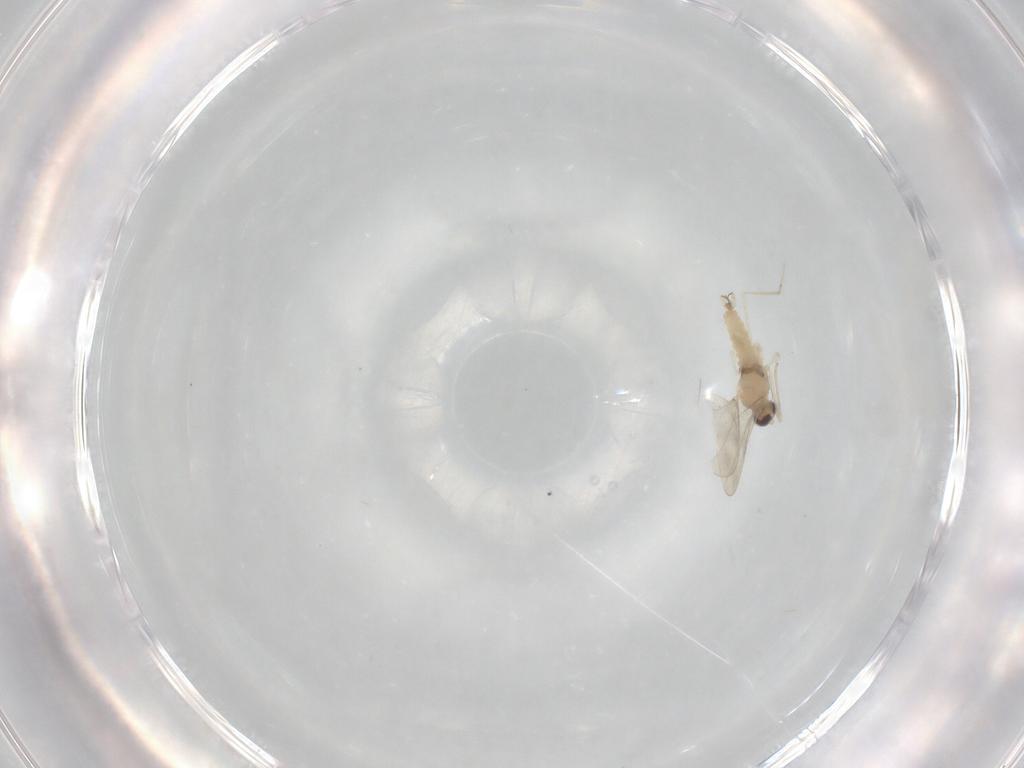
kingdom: Animalia
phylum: Arthropoda
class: Insecta
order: Diptera
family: Cecidomyiidae
